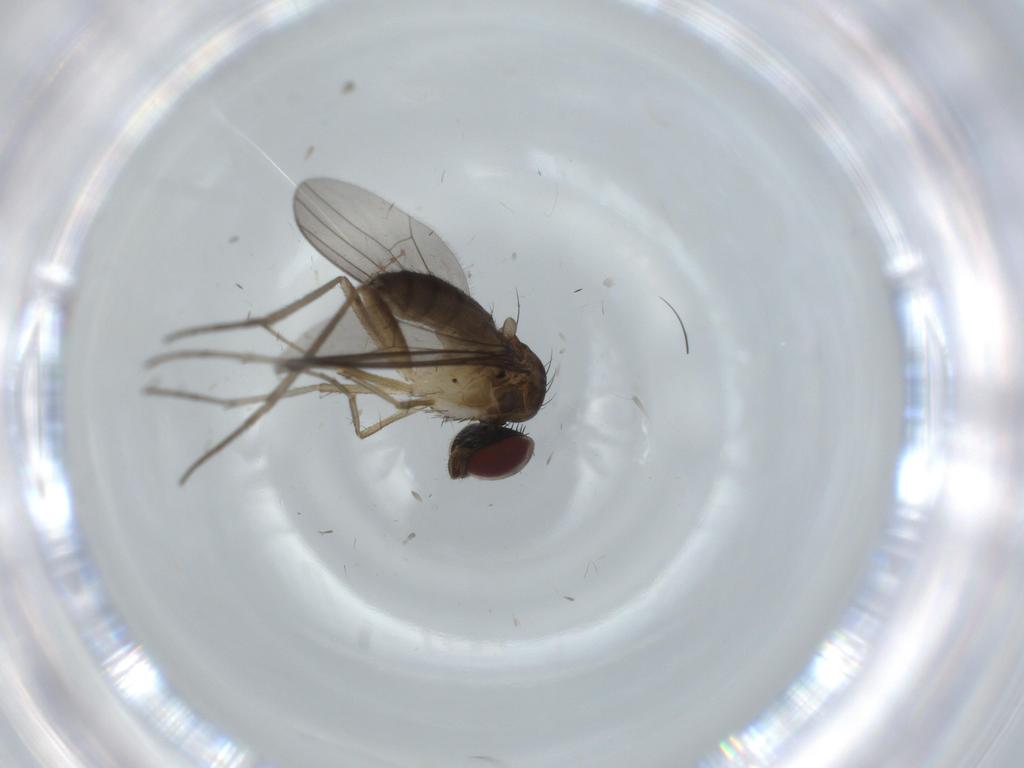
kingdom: Animalia
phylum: Arthropoda
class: Insecta
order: Diptera
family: Dolichopodidae
